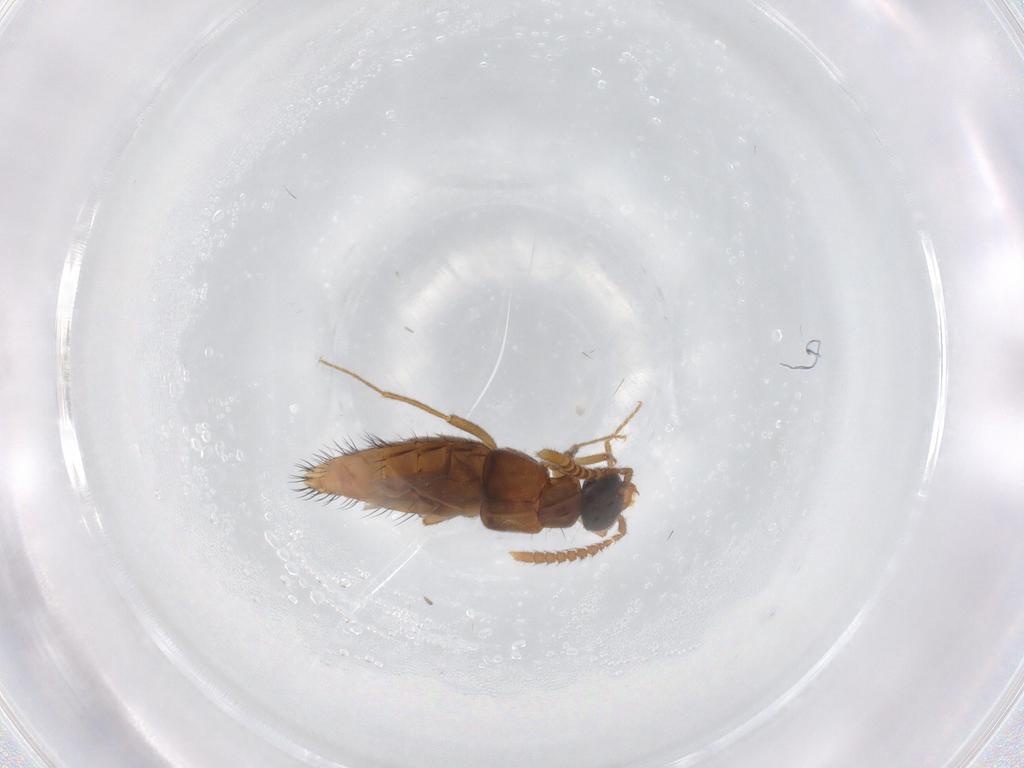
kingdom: Animalia
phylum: Arthropoda
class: Insecta
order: Coleoptera
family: Staphylinidae
